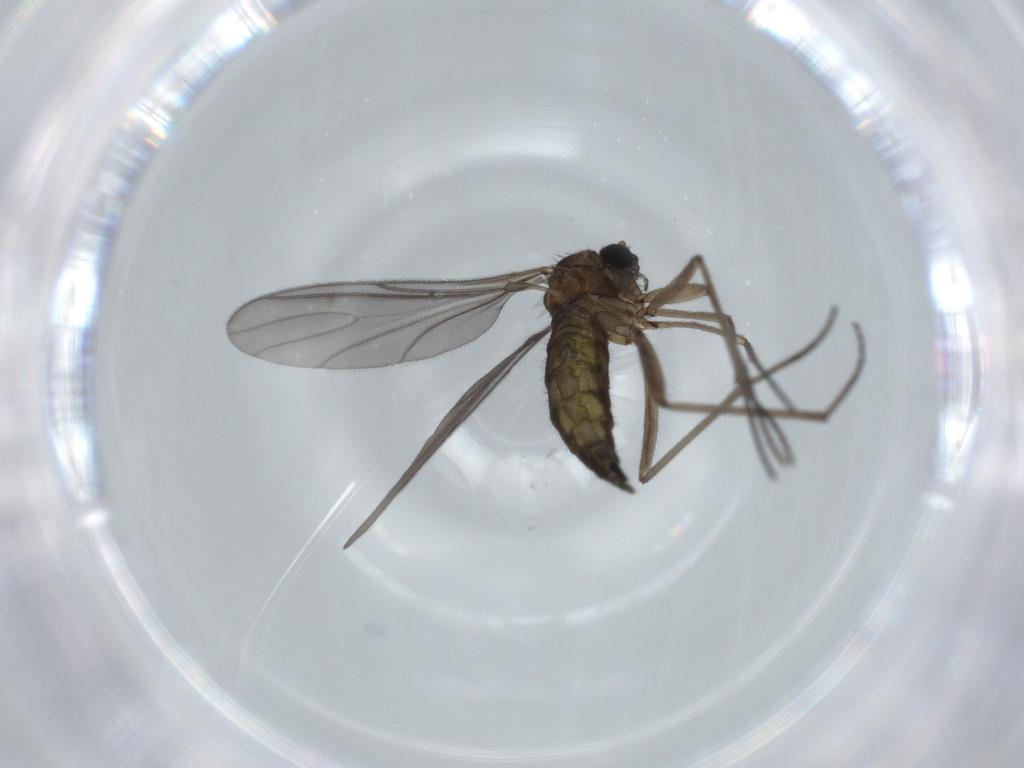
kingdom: Animalia
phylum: Arthropoda
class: Insecta
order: Diptera
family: Sciaridae
